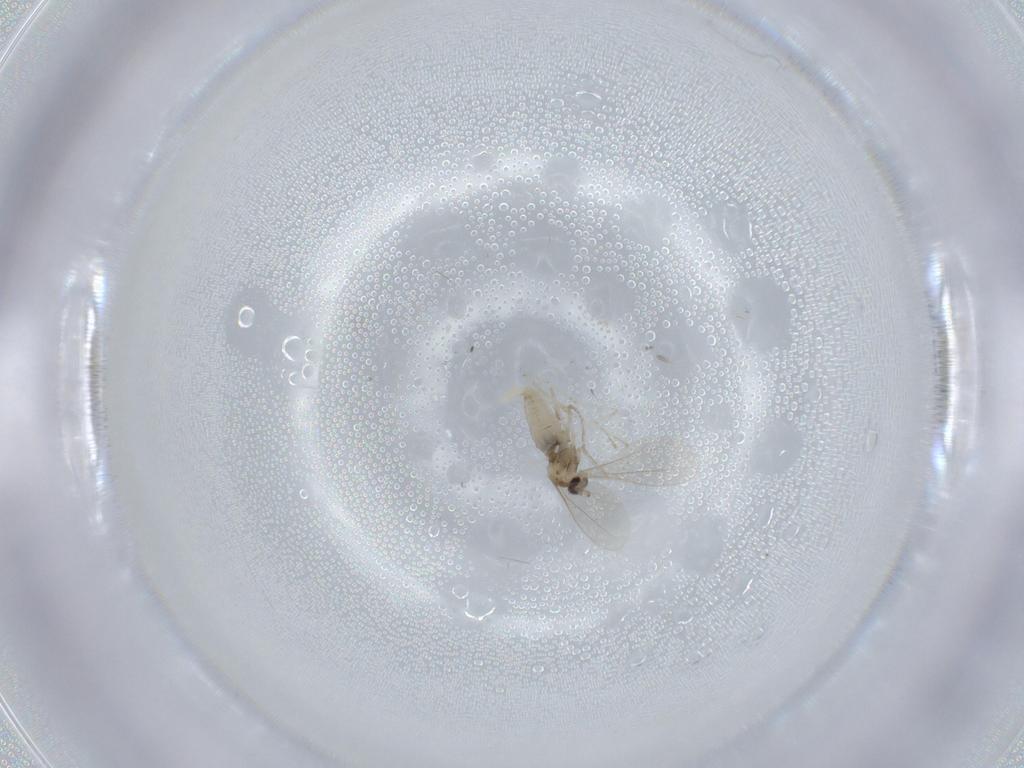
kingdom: Animalia
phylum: Arthropoda
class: Insecta
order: Diptera
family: Cecidomyiidae
